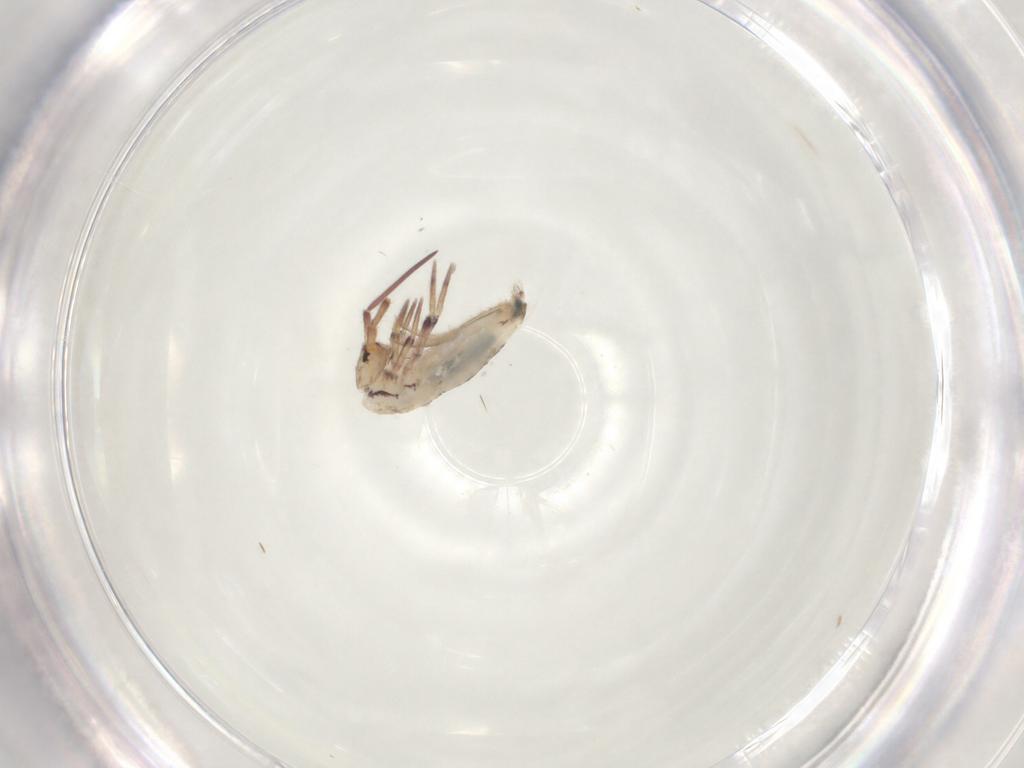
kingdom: Animalia
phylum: Arthropoda
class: Collembola
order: Entomobryomorpha
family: Entomobryidae
